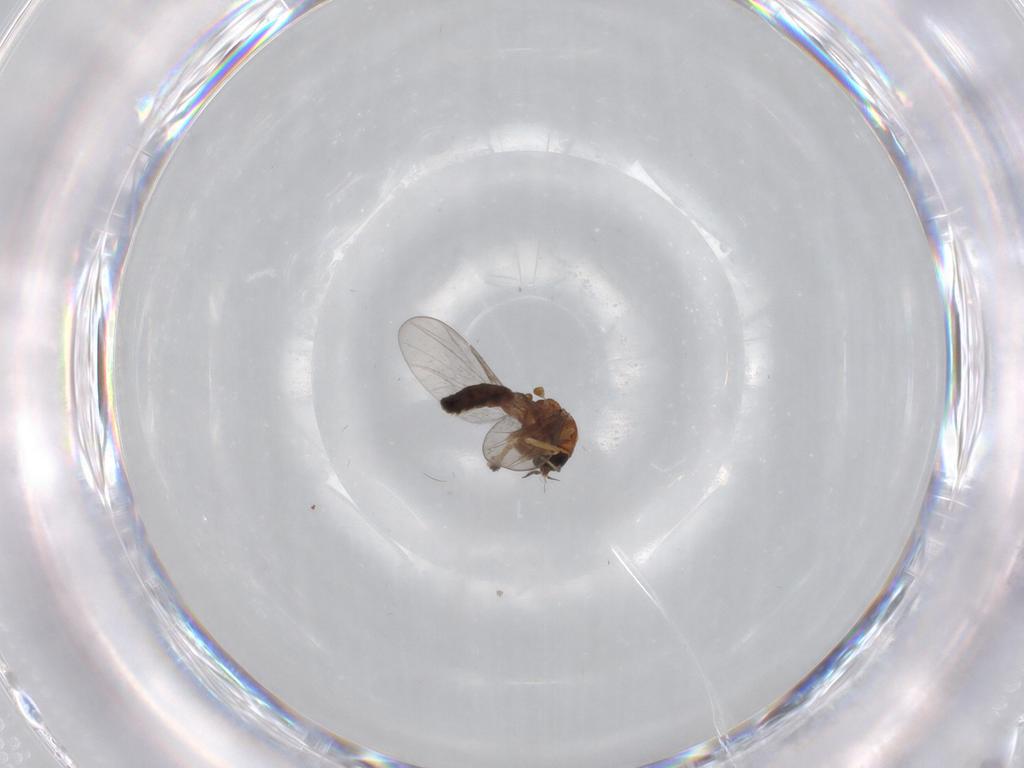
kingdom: Animalia
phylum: Arthropoda
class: Insecta
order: Diptera
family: Ceratopogonidae
